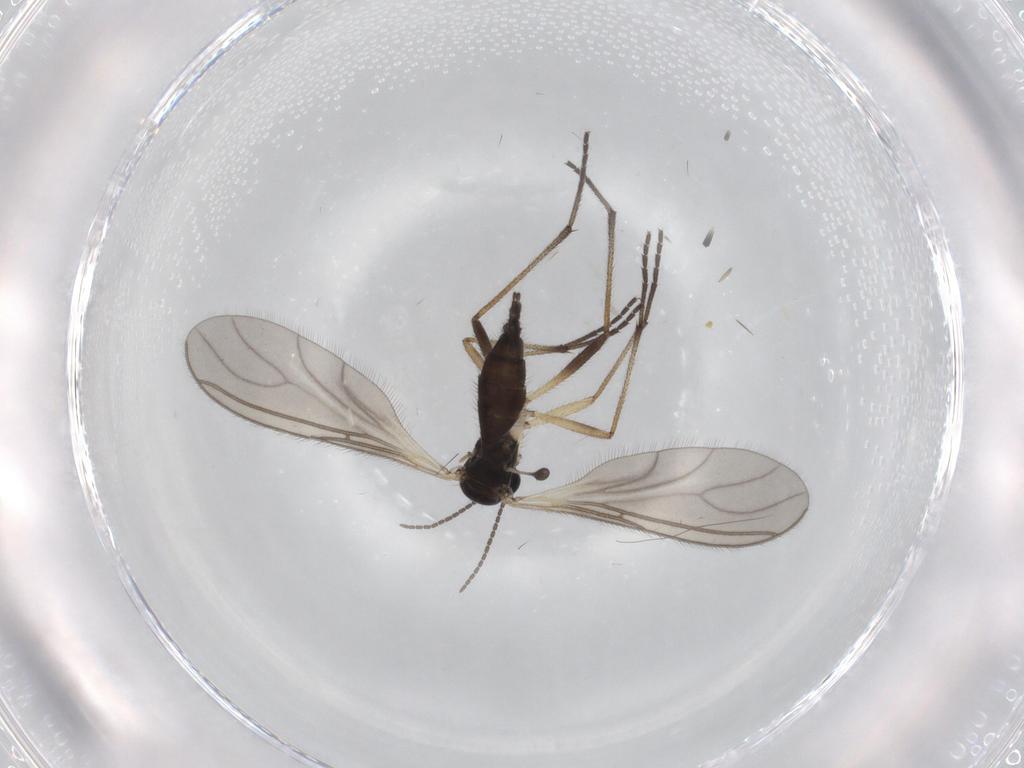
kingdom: Animalia
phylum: Arthropoda
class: Insecta
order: Diptera
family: Sciaridae
